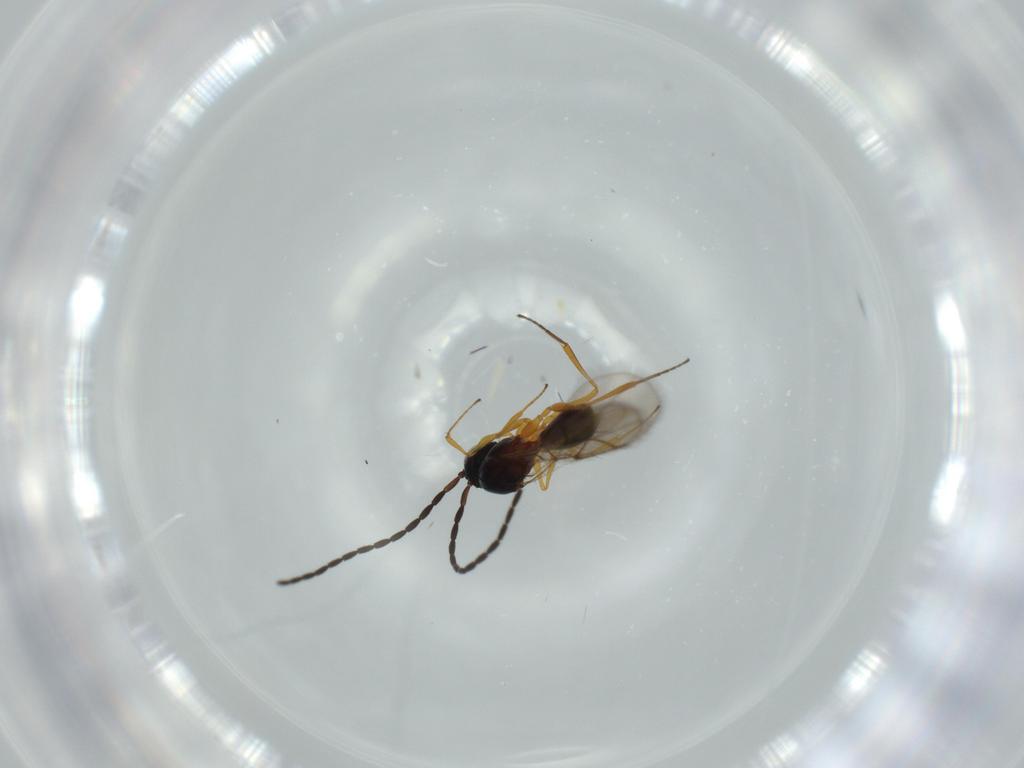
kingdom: Animalia
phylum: Arthropoda
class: Insecta
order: Hymenoptera
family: Figitidae
